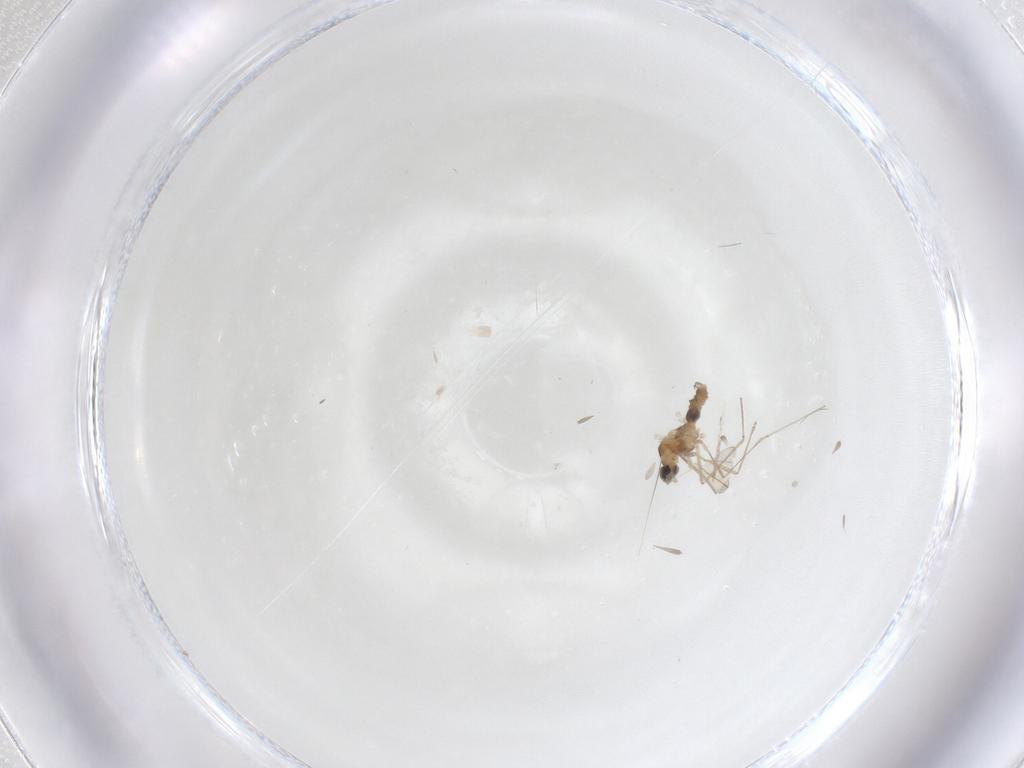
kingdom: Animalia
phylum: Arthropoda
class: Insecta
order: Diptera
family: Cecidomyiidae
